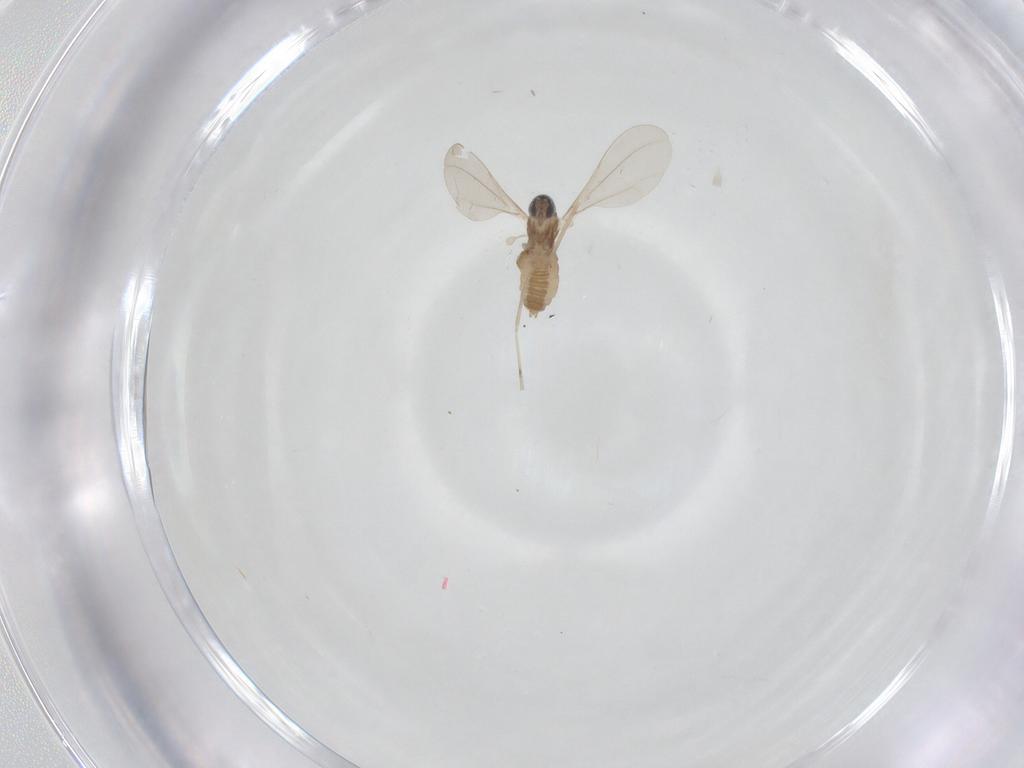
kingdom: Animalia
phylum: Arthropoda
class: Insecta
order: Diptera
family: Cecidomyiidae
